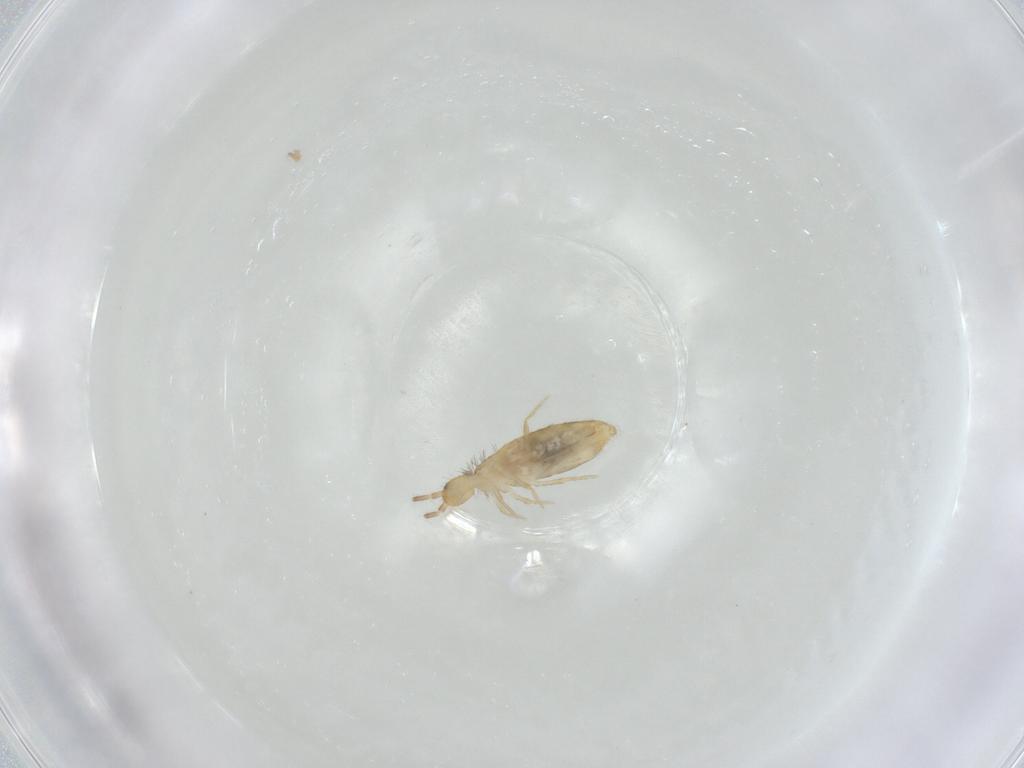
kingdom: Animalia
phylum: Arthropoda
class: Collembola
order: Entomobryomorpha
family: Entomobryidae
